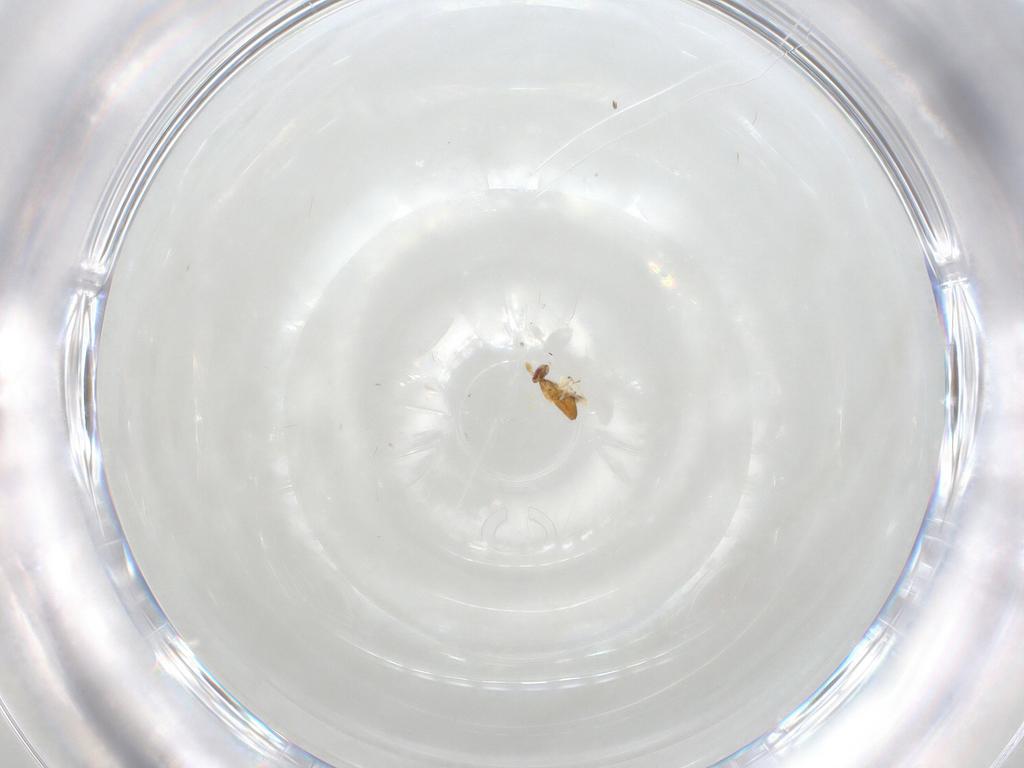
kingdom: Animalia
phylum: Arthropoda
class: Insecta
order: Hymenoptera
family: Trichogrammatidae
